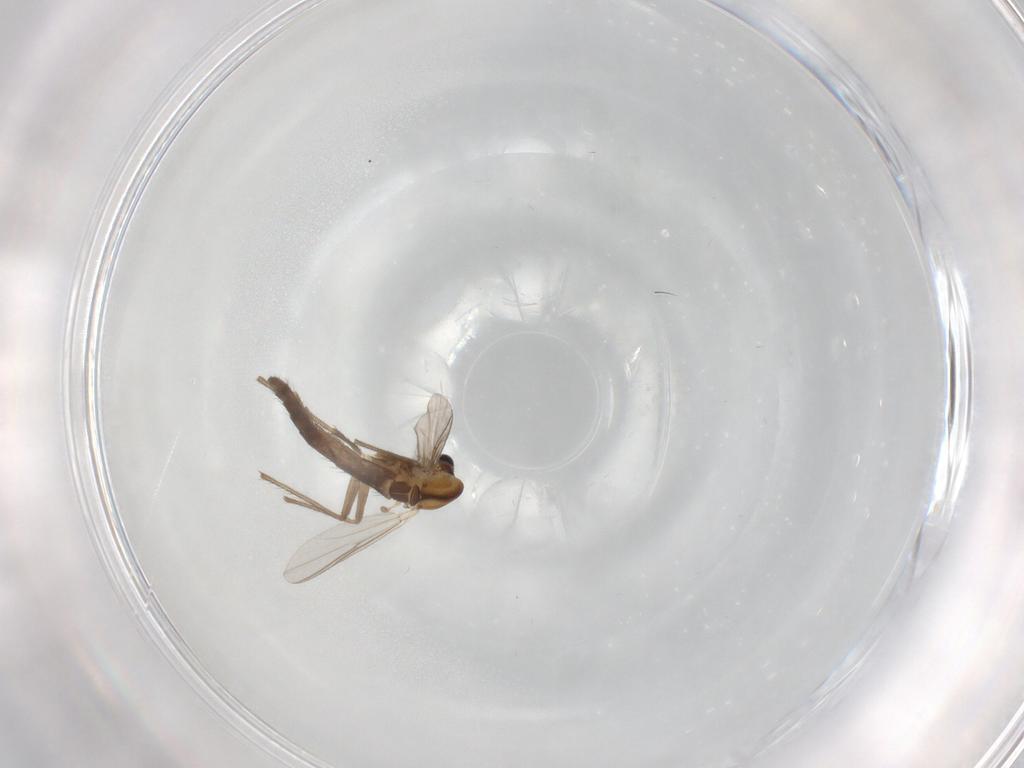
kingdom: Animalia
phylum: Arthropoda
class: Insecta
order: Diptera
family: Chironomidae
